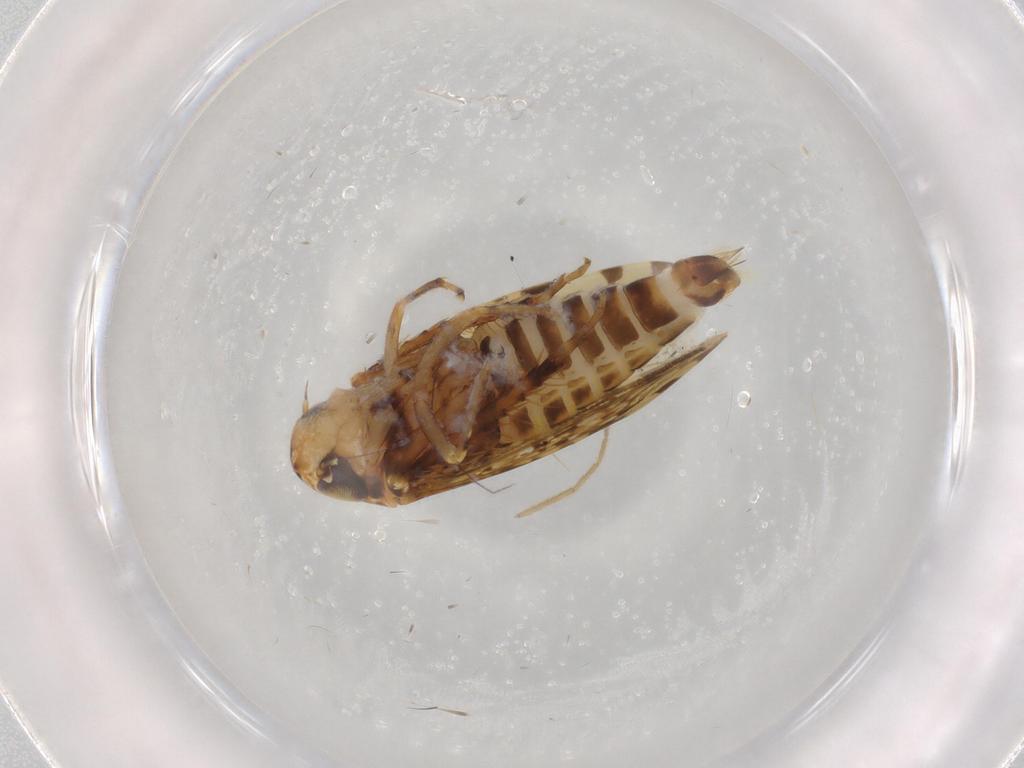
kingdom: Animalia
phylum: Arthropoda
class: Insecta
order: Hemiptera
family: Cicadellidae
